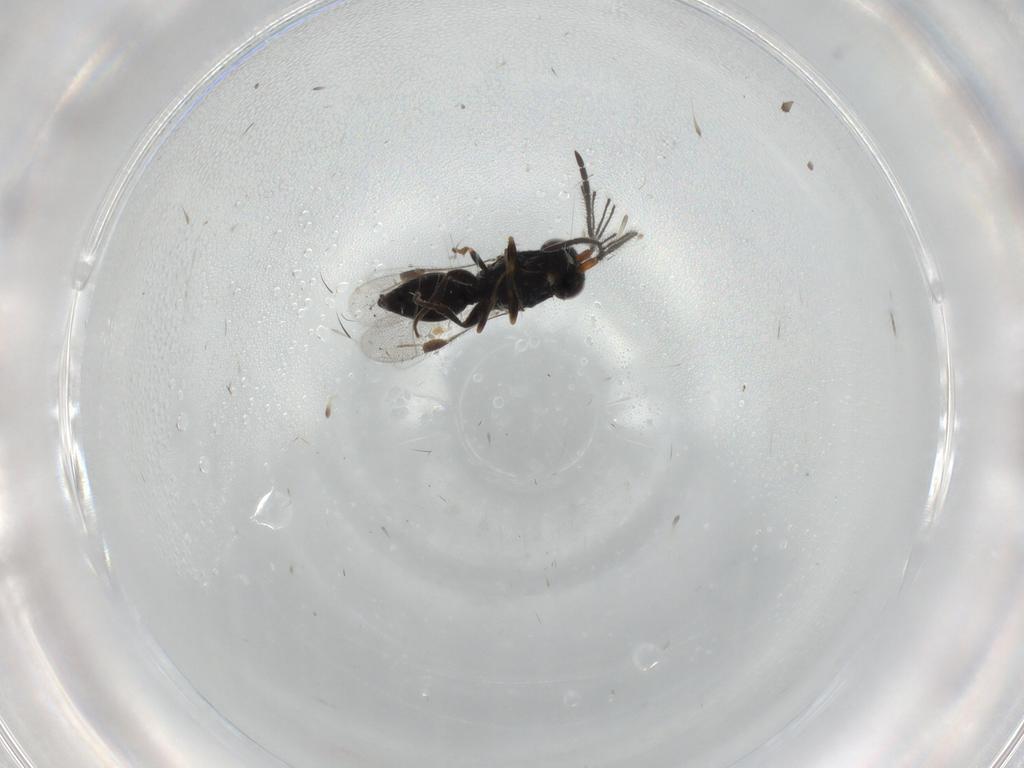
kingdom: Animalia
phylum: Arthropoda
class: Insecta
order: Hymenoptera
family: Megaspilidae
